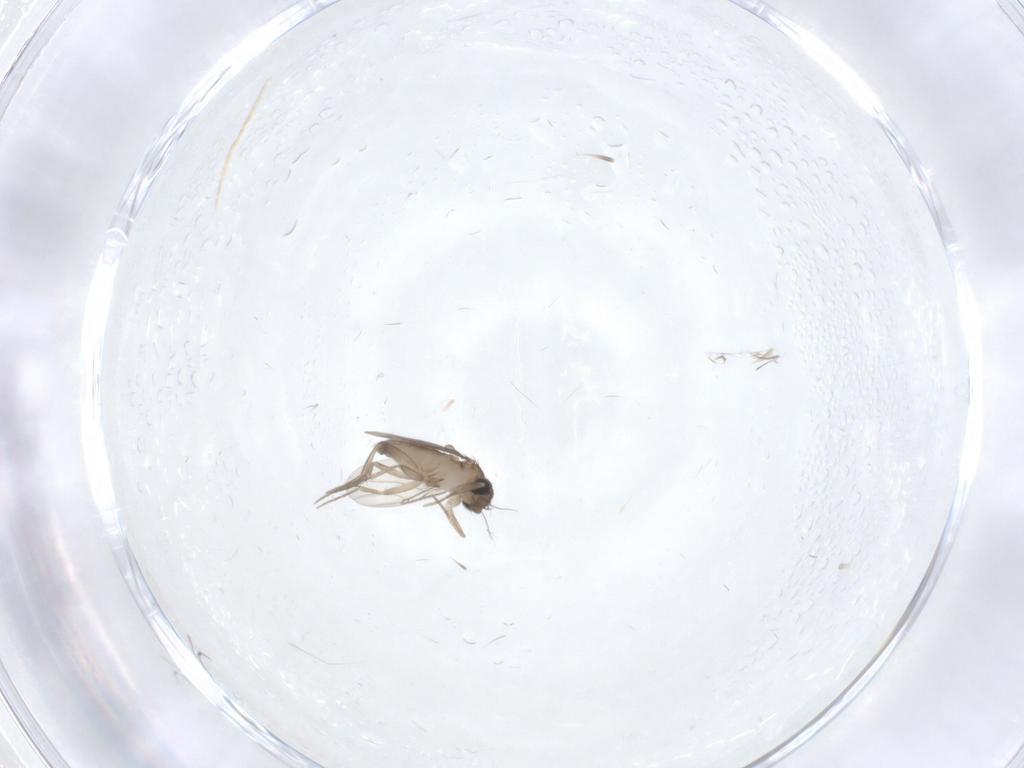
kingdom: Animalia
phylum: Arthropoda
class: Insecta
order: Diptera
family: Phoridae
